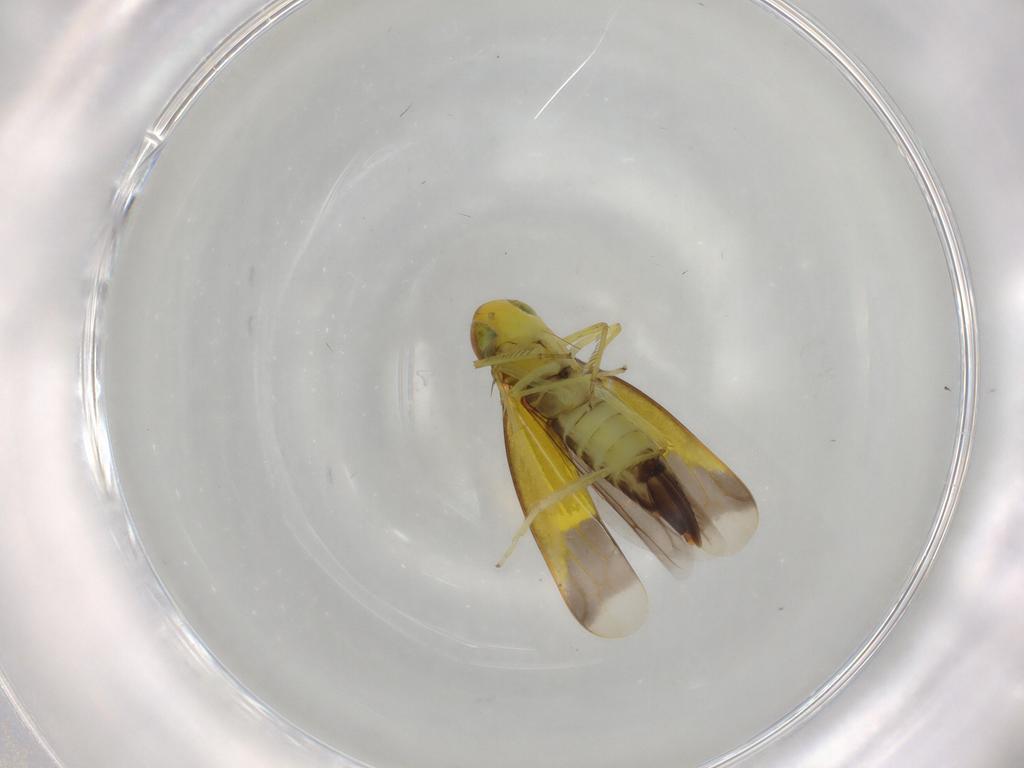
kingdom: Animalia
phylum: Arthropoda
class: Insecta
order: Hemiptera
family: Cicadellidae
